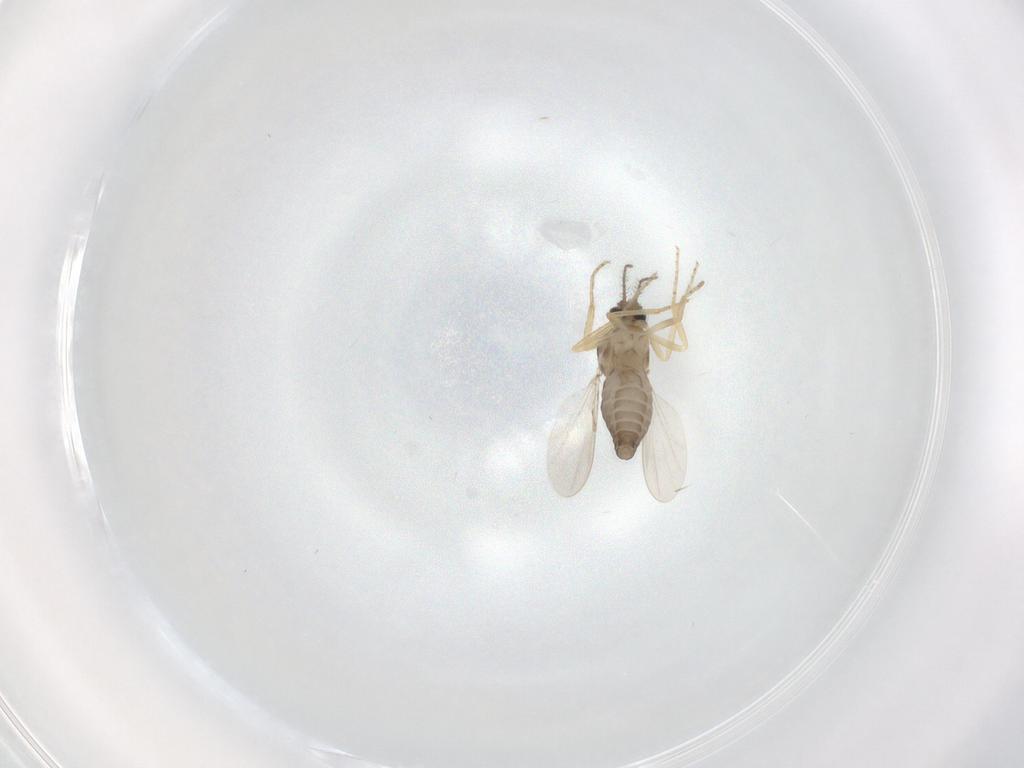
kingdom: Animalia
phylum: Arthropoda
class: Insecta
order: Diptera
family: Ceratopogonidae
